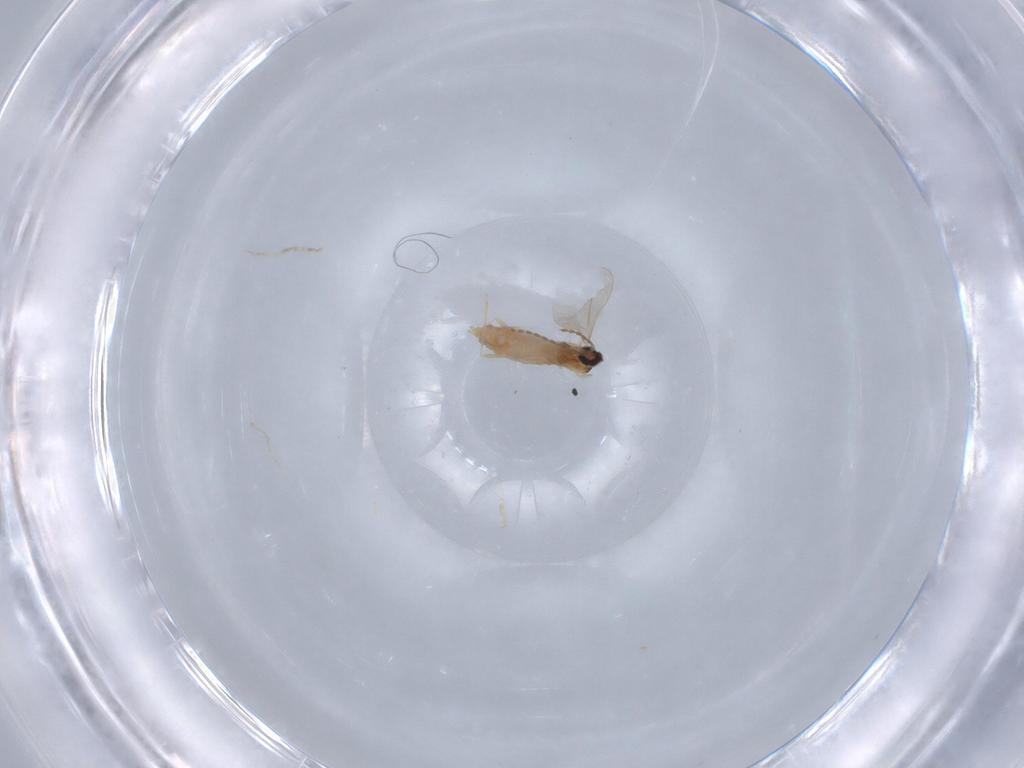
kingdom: Animalia
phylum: Arthropoda
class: Insecta
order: Diptera
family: Cecidomyiidae
